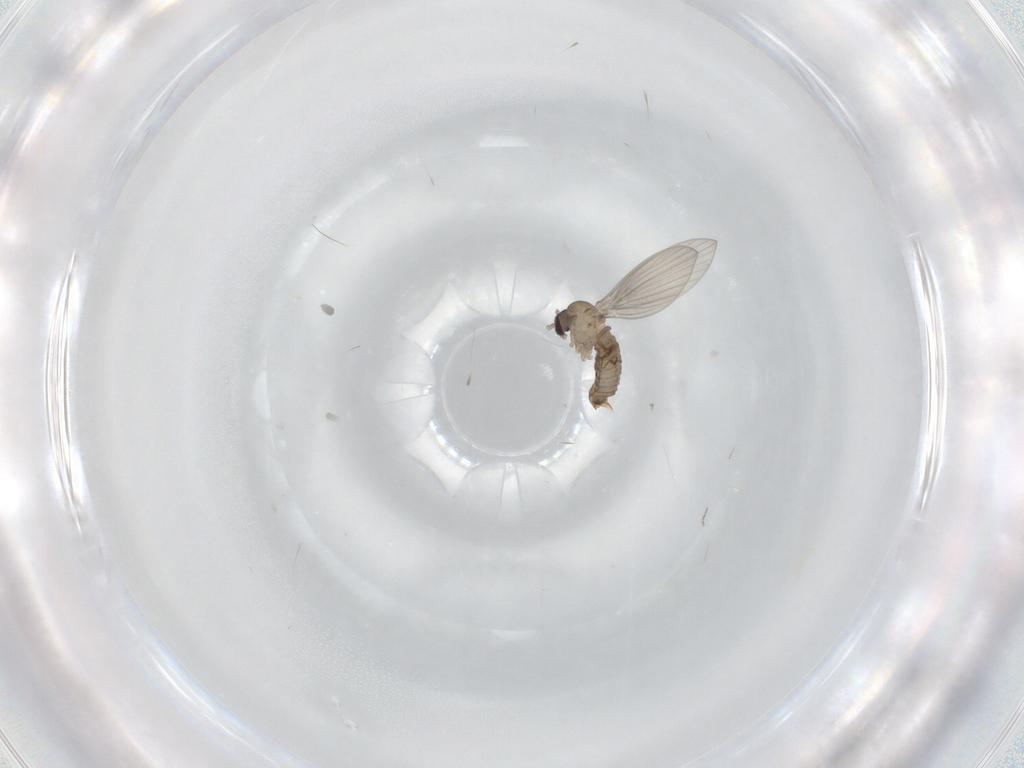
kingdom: Animalia
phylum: Arthropoda
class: Insecta
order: Diptera
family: Psychodidae
